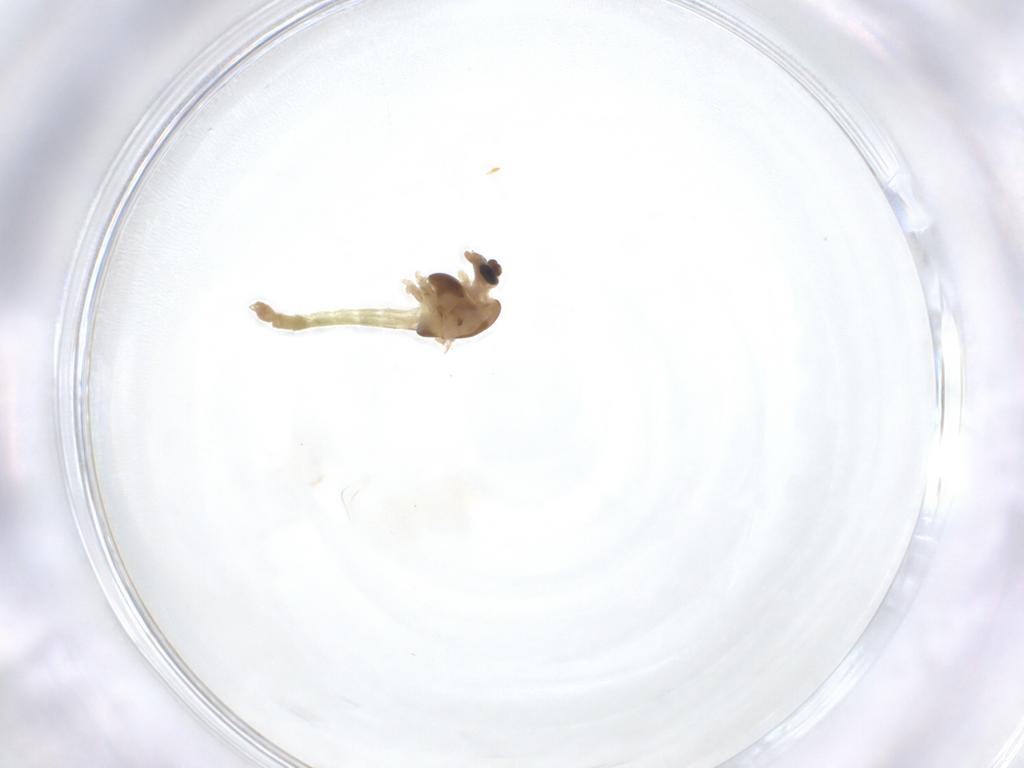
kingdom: Animalia
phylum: Arthropoda
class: Insecta
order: Diptera
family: Chironomidae
